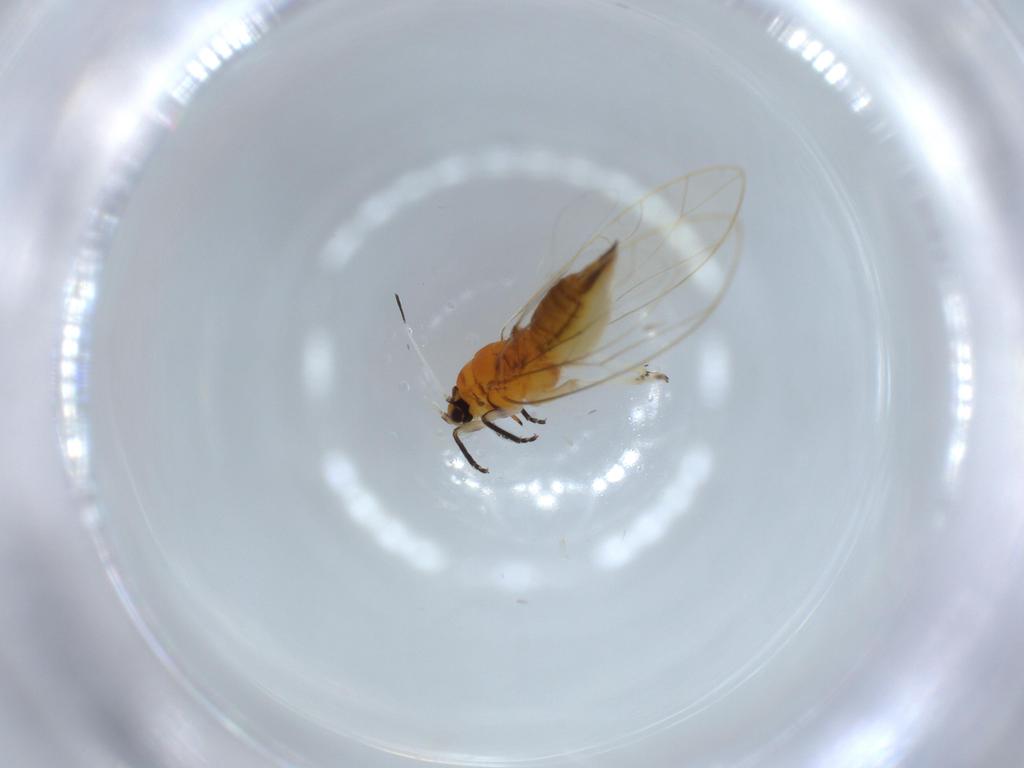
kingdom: Animalia
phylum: Arthropoda
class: Insecta
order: Hemiptera
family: Triozidae
